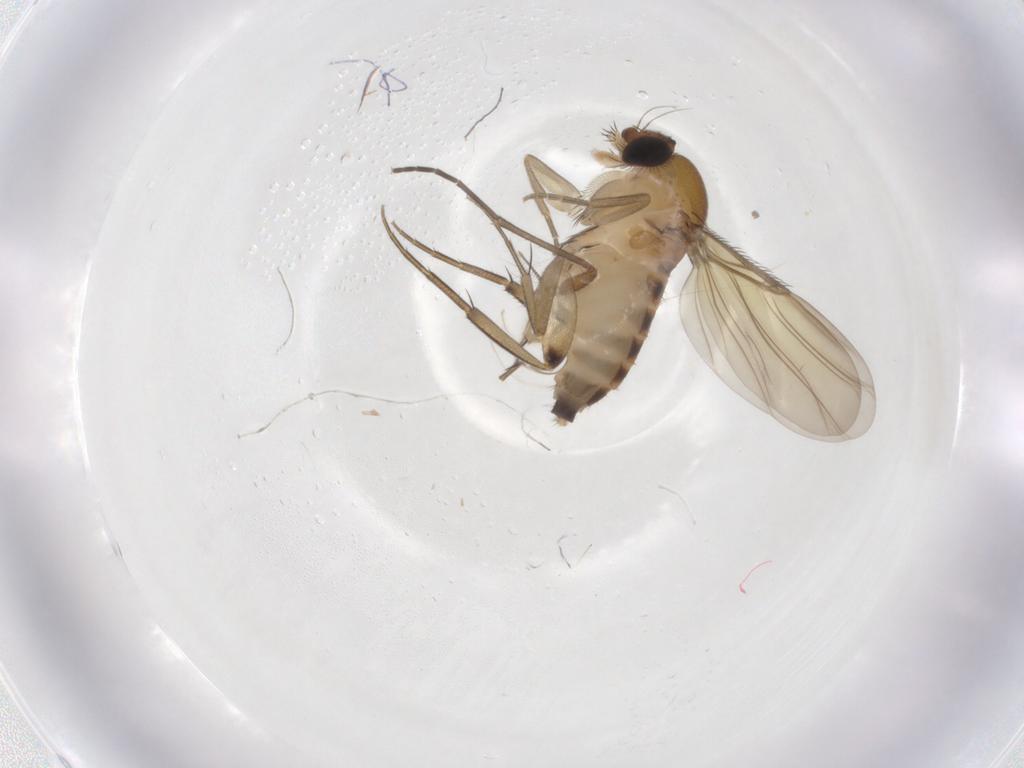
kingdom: Animalia
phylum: Arthropoda
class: Insecta
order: Diptera
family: Phoridae
